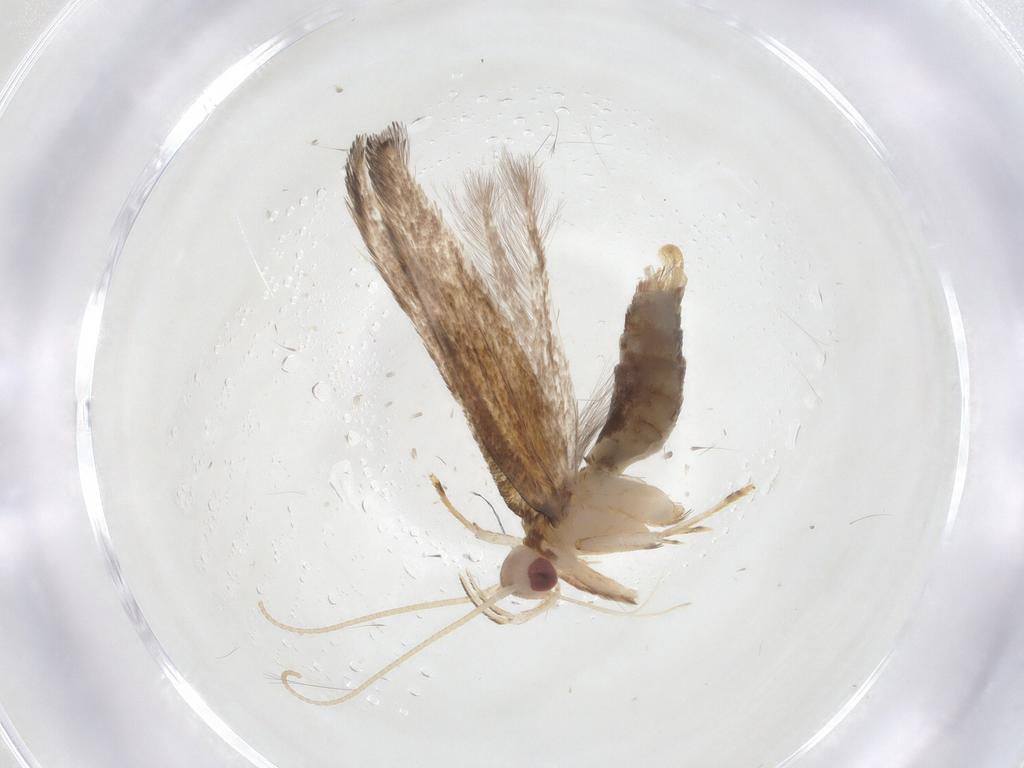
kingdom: Animalia
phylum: Arthropoda
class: Insecta
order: Lepidoptera
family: Cosmopterigidae
